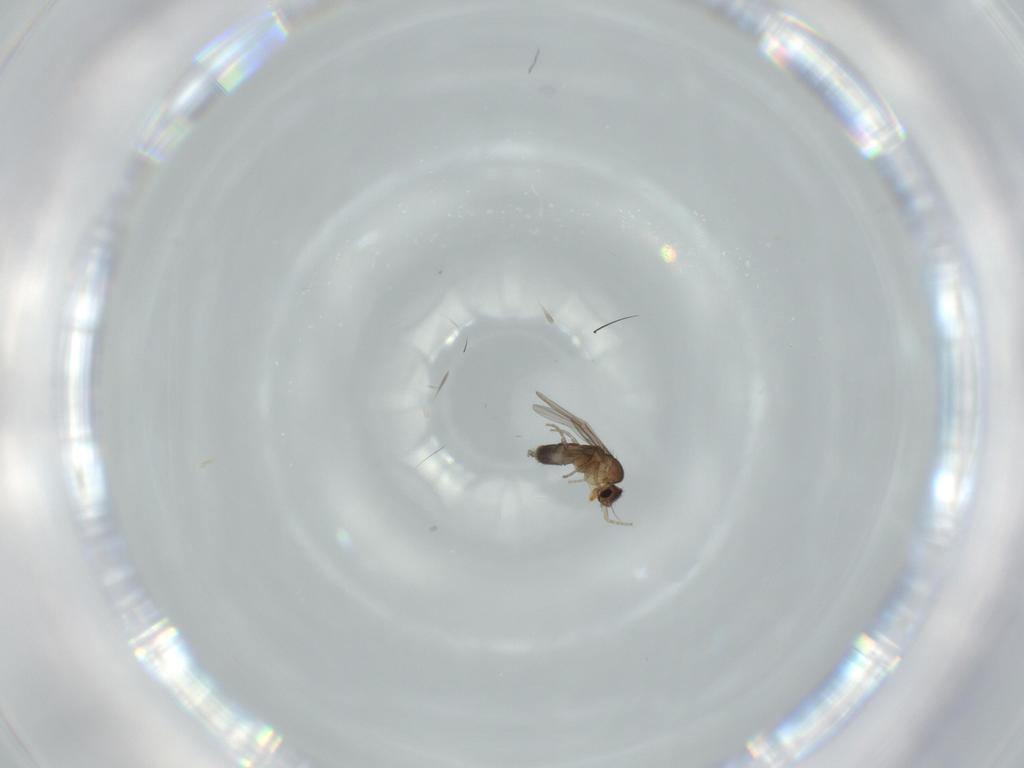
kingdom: Animalia
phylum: Arthropoda
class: Insecta
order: Diptera
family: Phoridae
